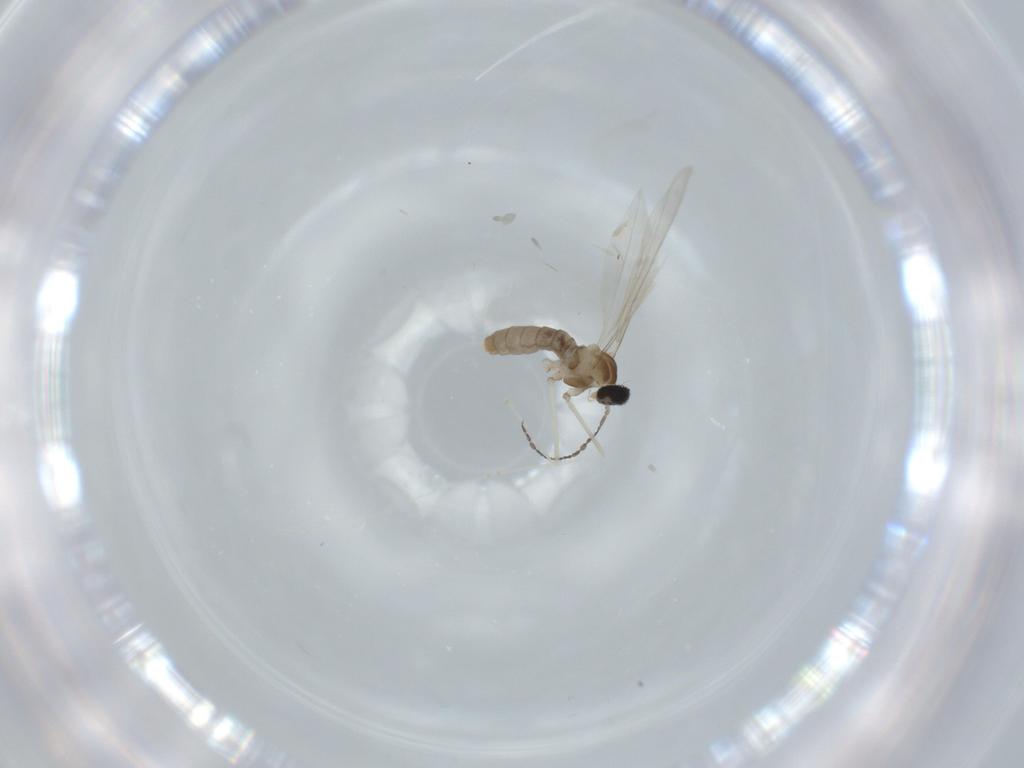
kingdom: Animalia
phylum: Arthropoda
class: Insecta
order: Diptera
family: Cecidomyiidae
